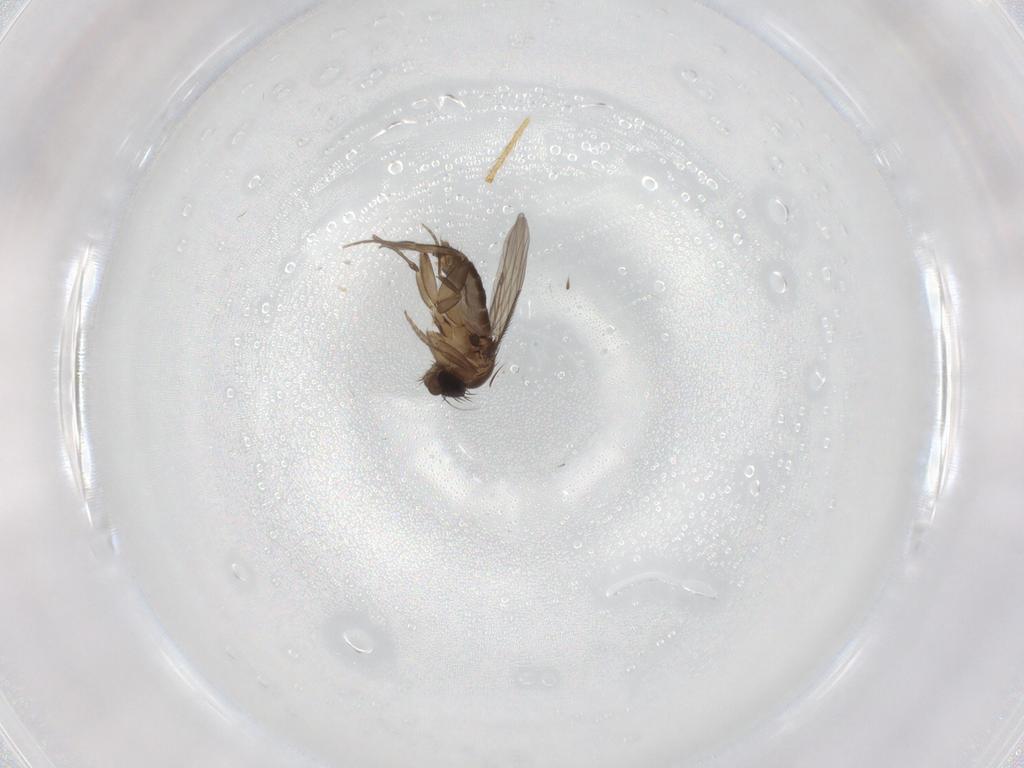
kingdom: Animalia
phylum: Arthropoda
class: Insecta
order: Diptera
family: Phoridae
